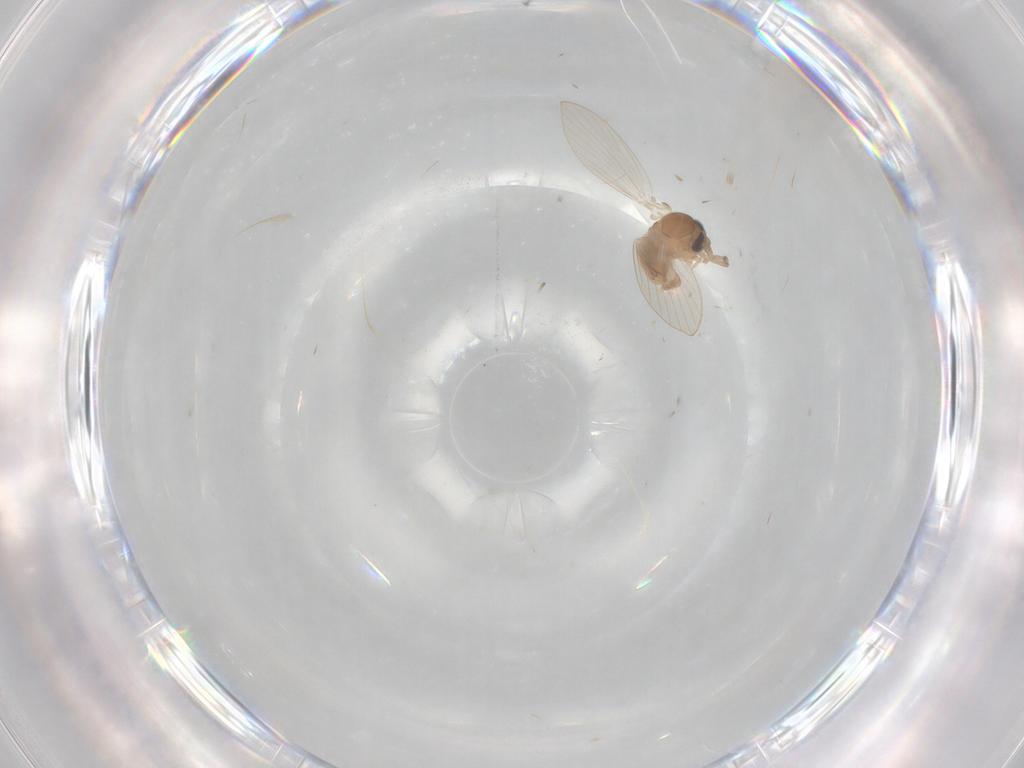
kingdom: Animalia
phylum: Arthropoda
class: Insecta
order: Diptera
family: Psychodidae
